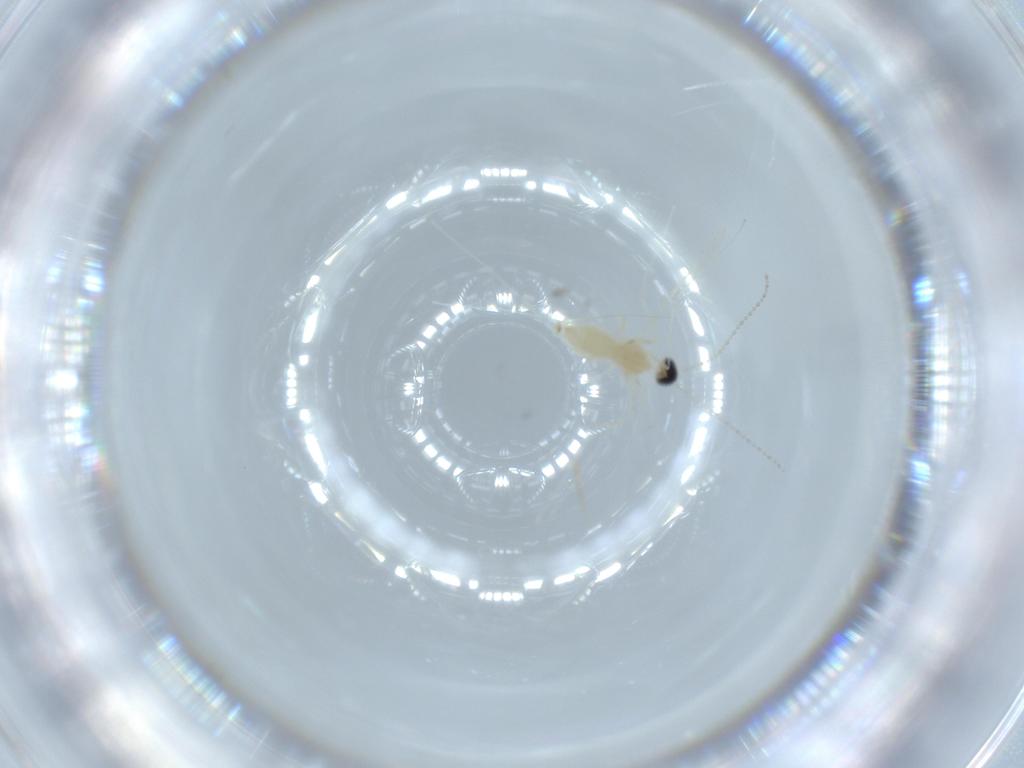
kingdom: Animalia
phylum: Arthropoda
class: Insecta
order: Diptera
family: Cecidomyiidae
